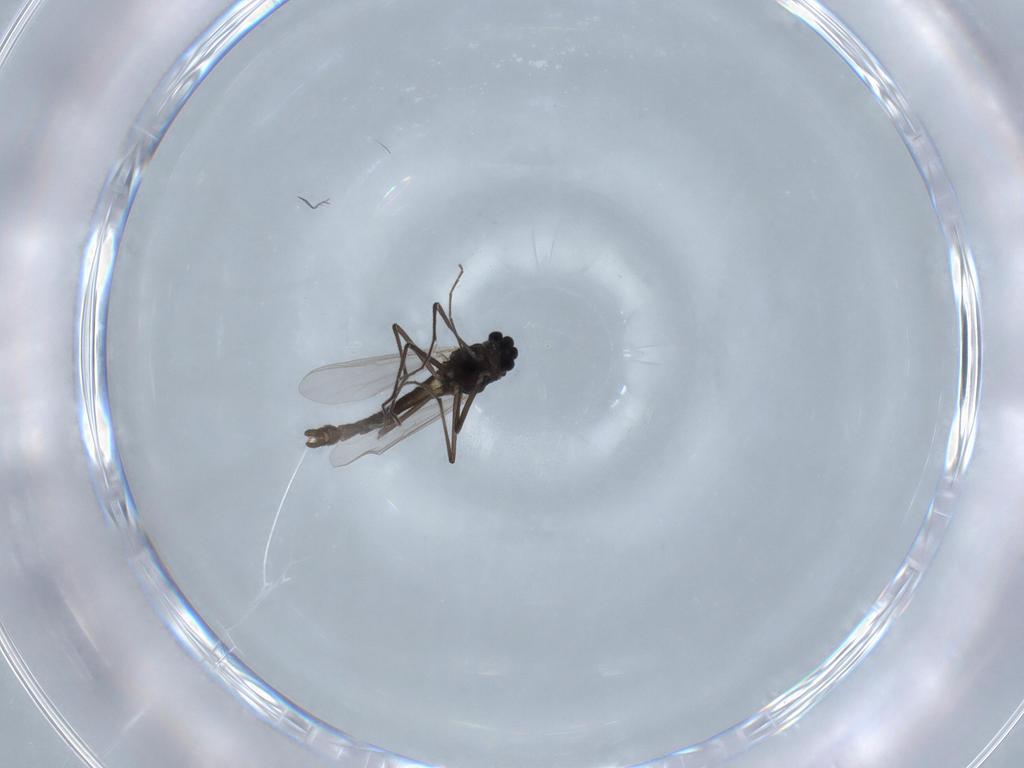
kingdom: Animalia
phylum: Arthropoda
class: Insecta
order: Diptera
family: Chironomidae
